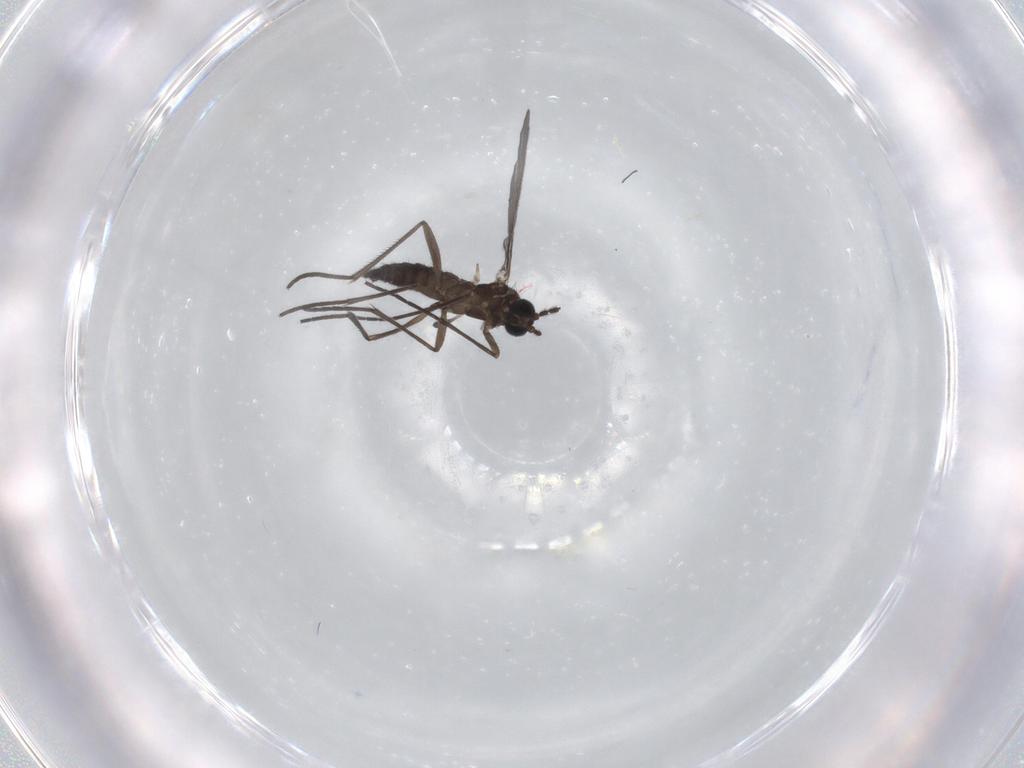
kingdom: Animalia
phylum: Arthropoda
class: Insecta
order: Diptera
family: Sciaridae
